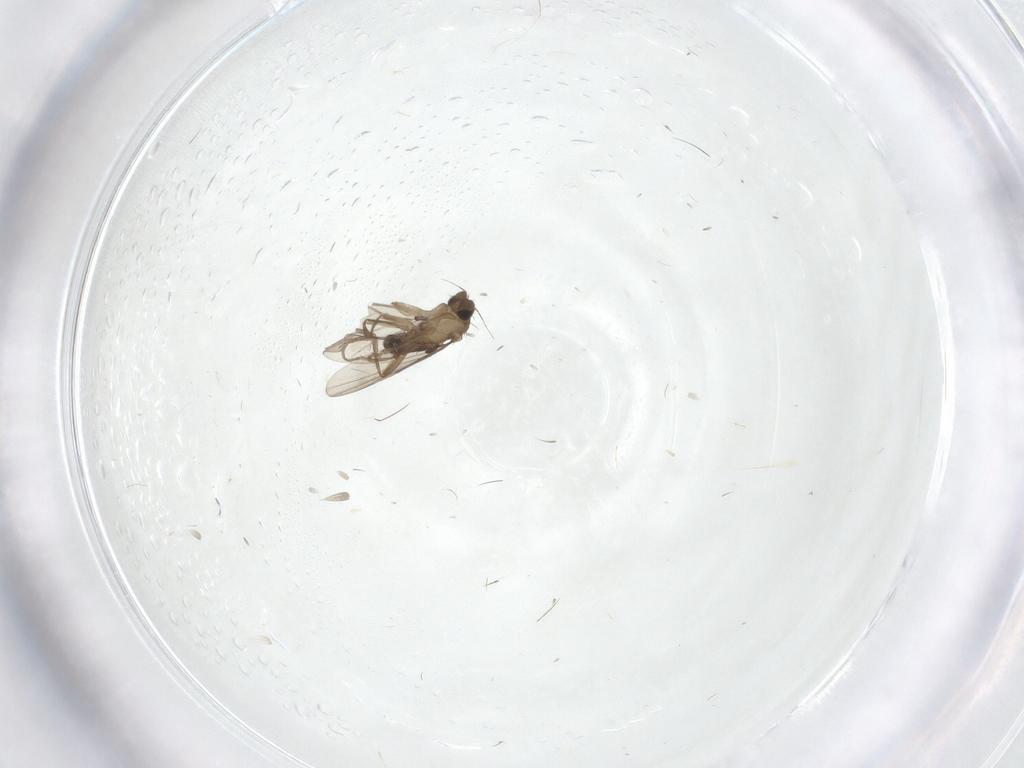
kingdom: Animalia
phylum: Arthropoda
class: Insecta
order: Diptera
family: Phoridae
